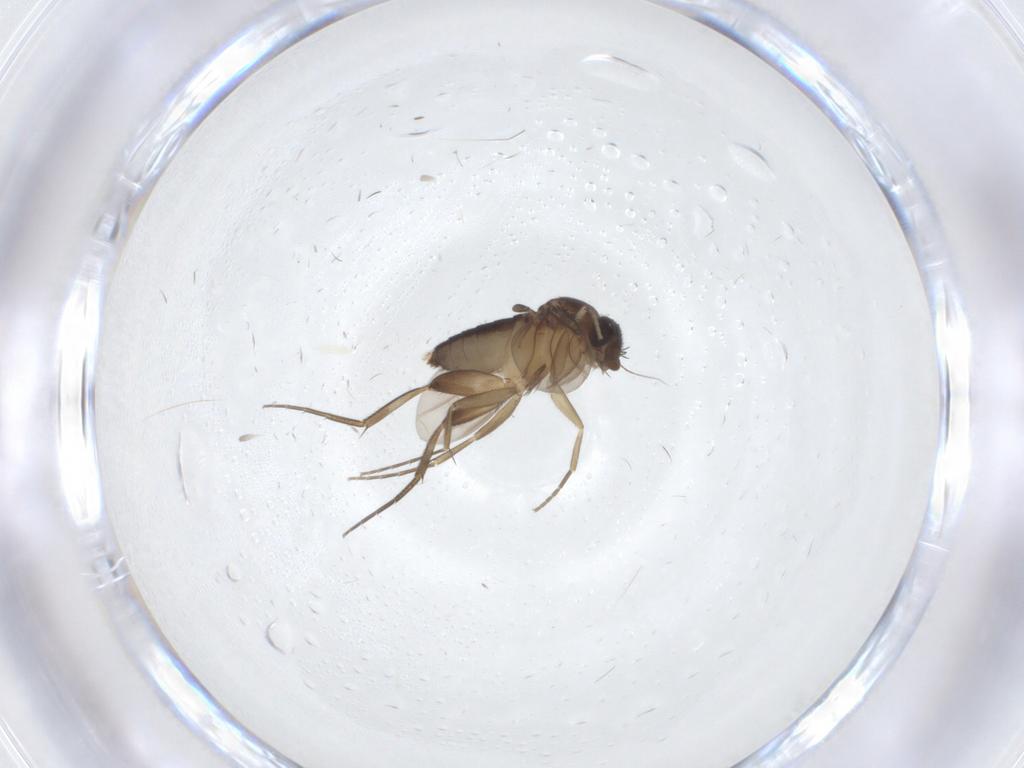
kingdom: Animalia
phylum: Arthropoda
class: Insecta
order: Diptera
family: Phoridae
